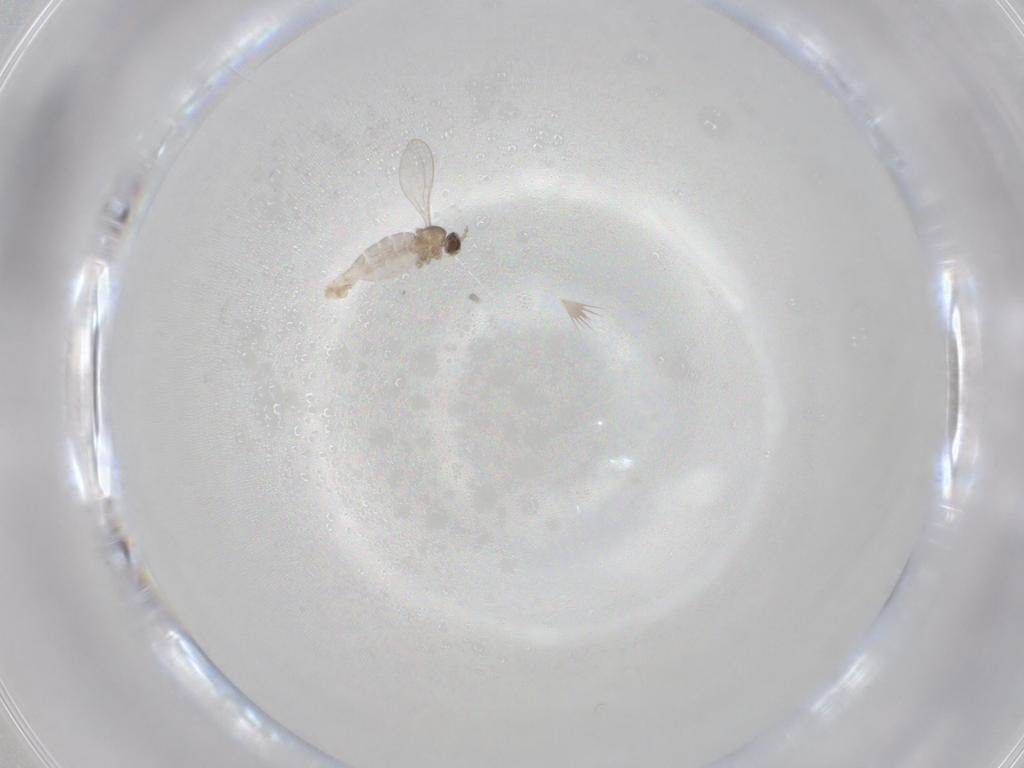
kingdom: Animalia
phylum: Arthropoda
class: Insecta
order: Diptera
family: Cecidomyiidae
